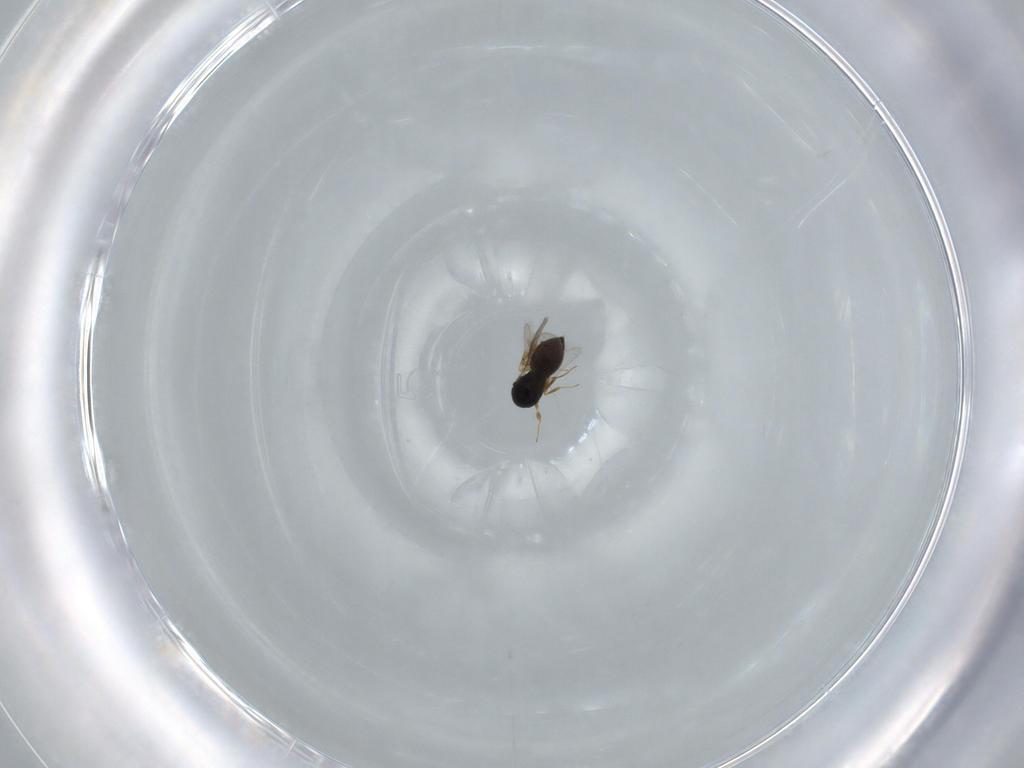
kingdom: Animalia
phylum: Arthropoda
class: Insecta
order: Hymenoptera
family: Scelionidae
